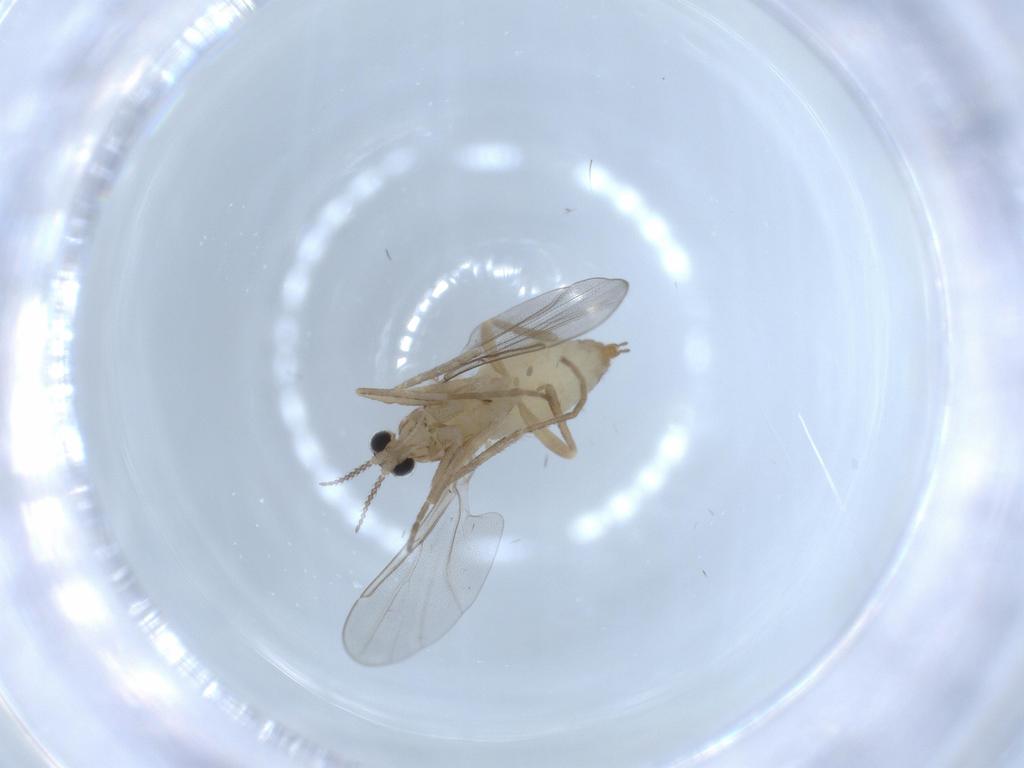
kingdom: Animalia
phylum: Arthropoda
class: Insecta
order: Diptera
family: Cecidomyiidae
